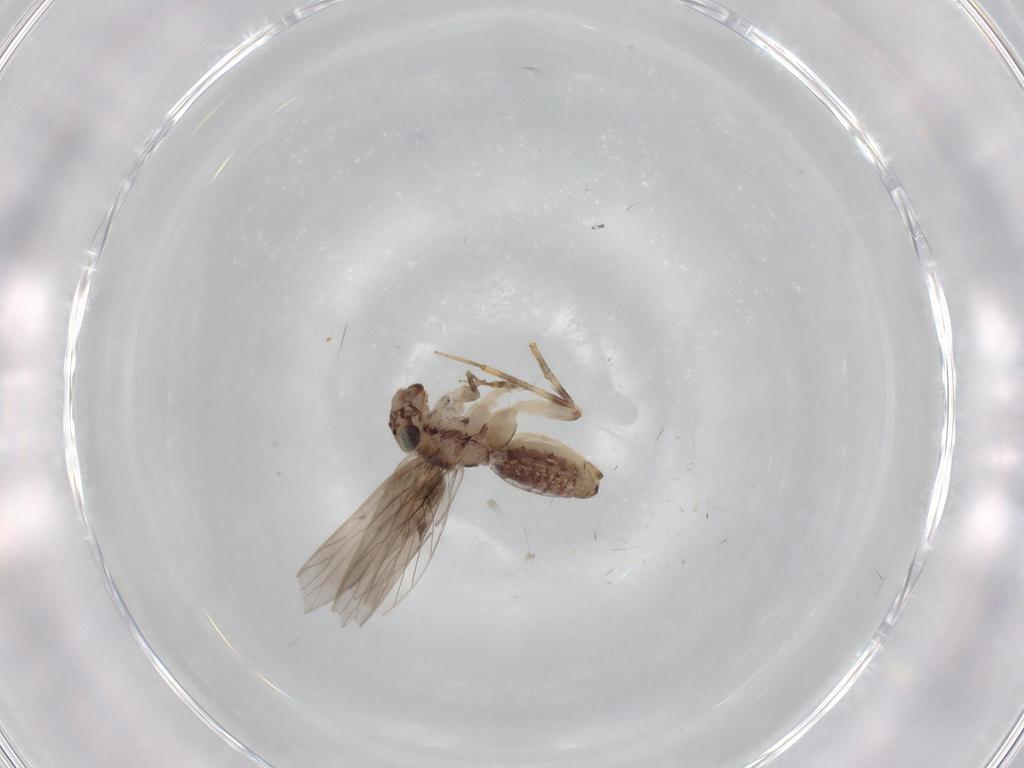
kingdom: Animalia
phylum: Arthropoda
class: Insecta
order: Psocodea
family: Lepidopsocidae
